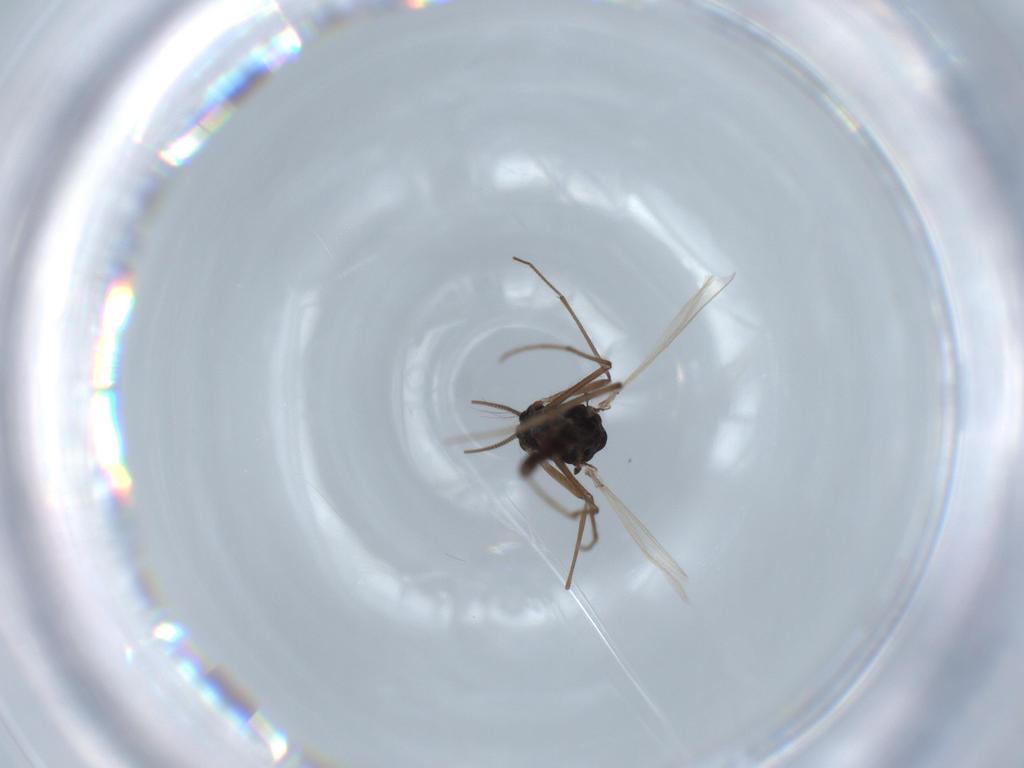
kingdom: Animalia
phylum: Arthropoda
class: Insecta
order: Diptera
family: Chironomidae
